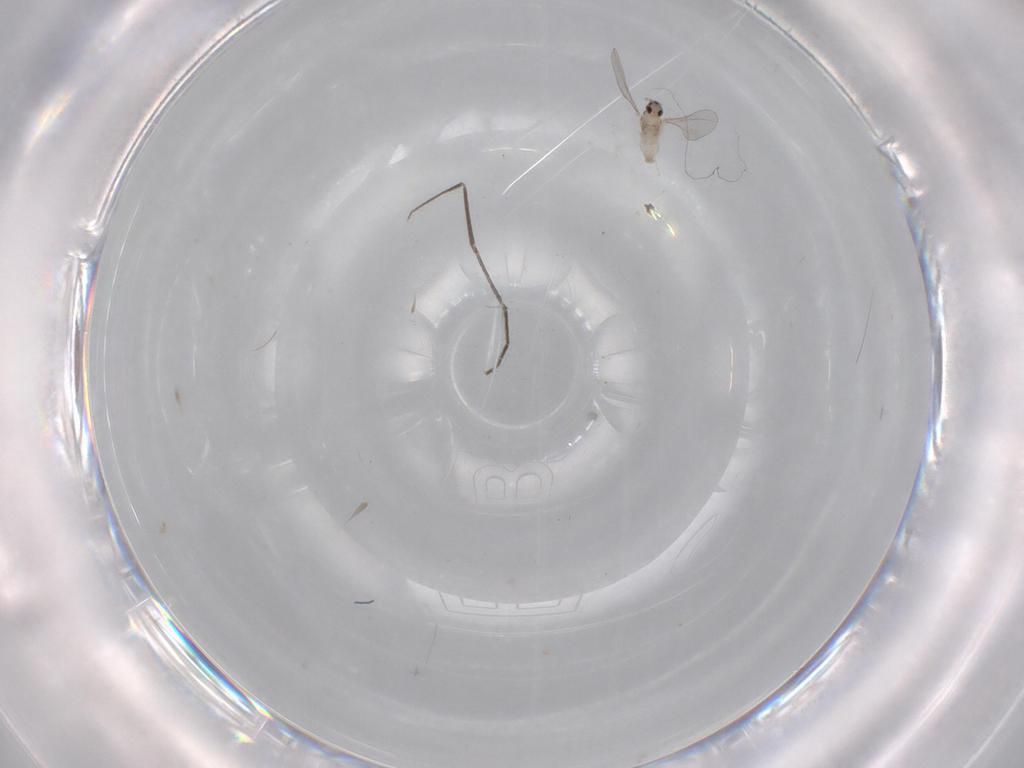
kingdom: Animalia
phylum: Arthropoda
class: Insecta
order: Diptera
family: Cecidomyiidae
